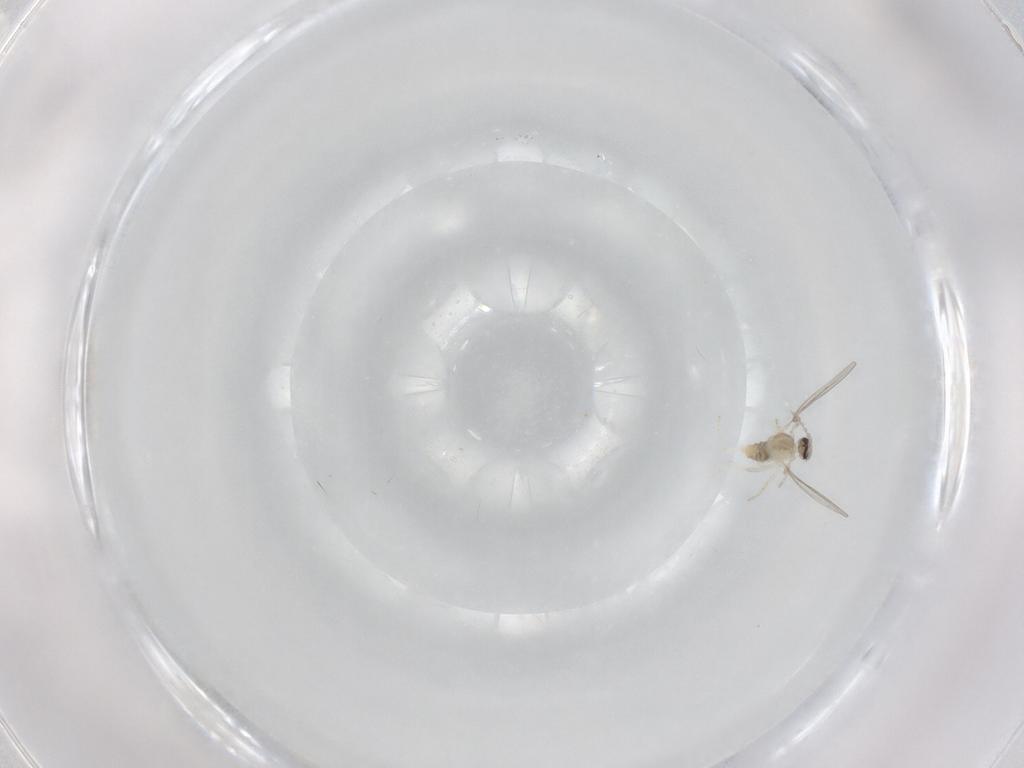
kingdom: Animalia
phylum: Arthropoda
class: Insecta
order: Diptera
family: Cecidomyiidae
